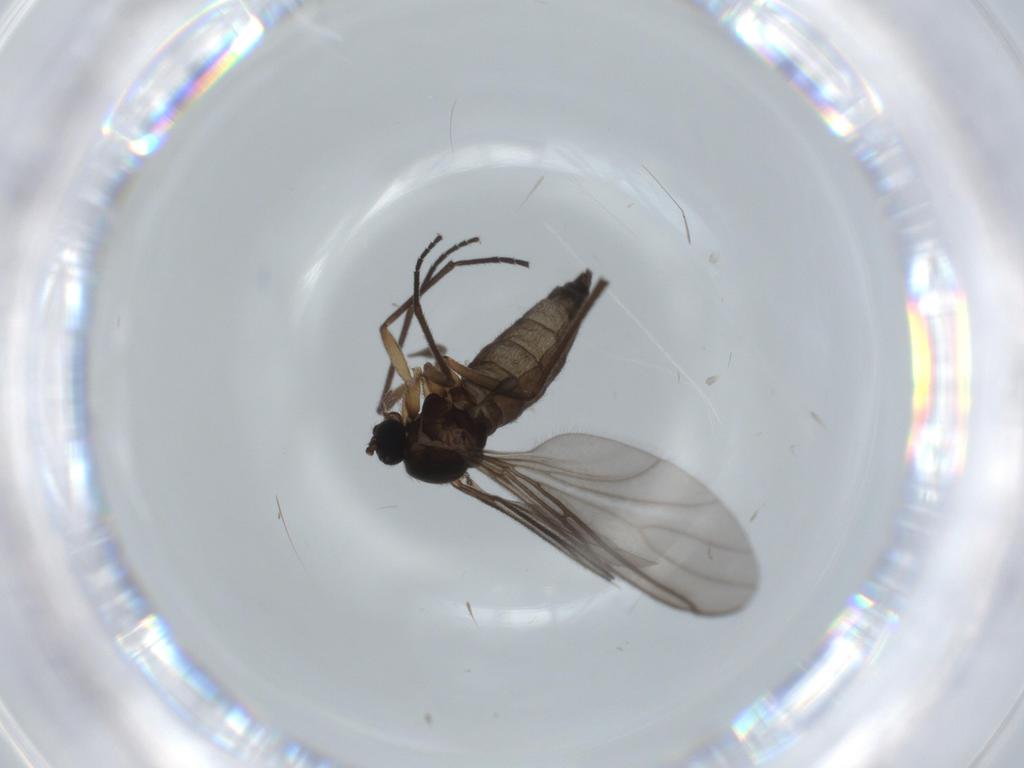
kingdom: Animalia
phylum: Arthropoda
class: Insecta
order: Diptera
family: Sciaridae
